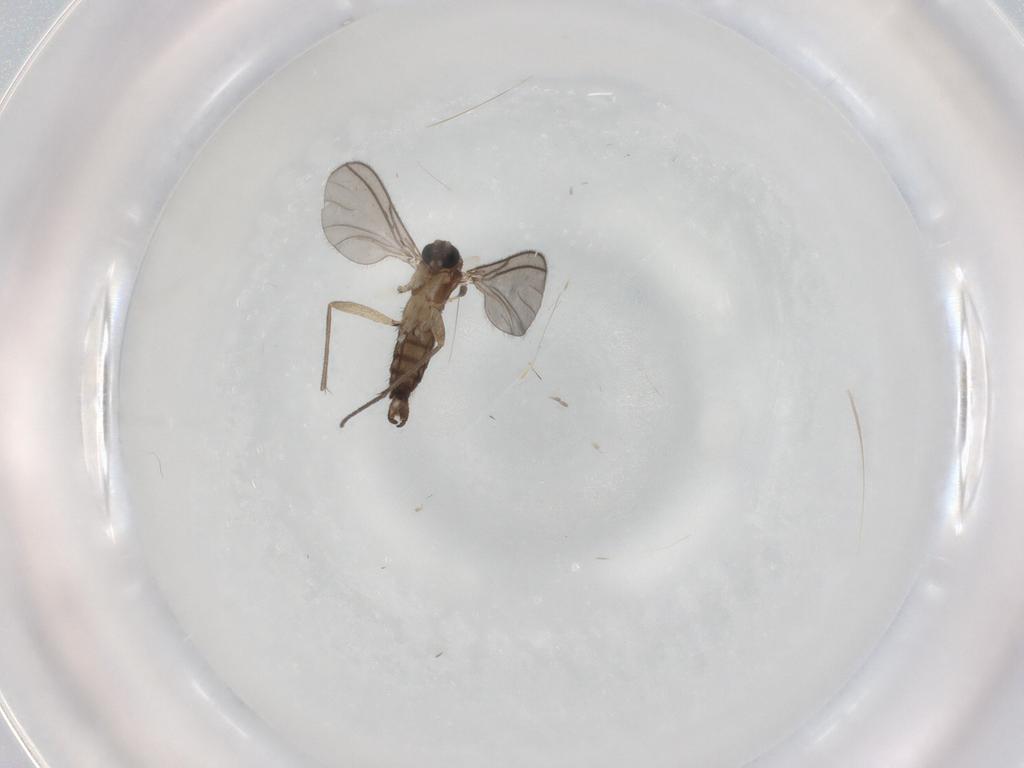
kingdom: Animalia
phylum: Arthropoda
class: Insecta
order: Diptera
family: Sciaridae
